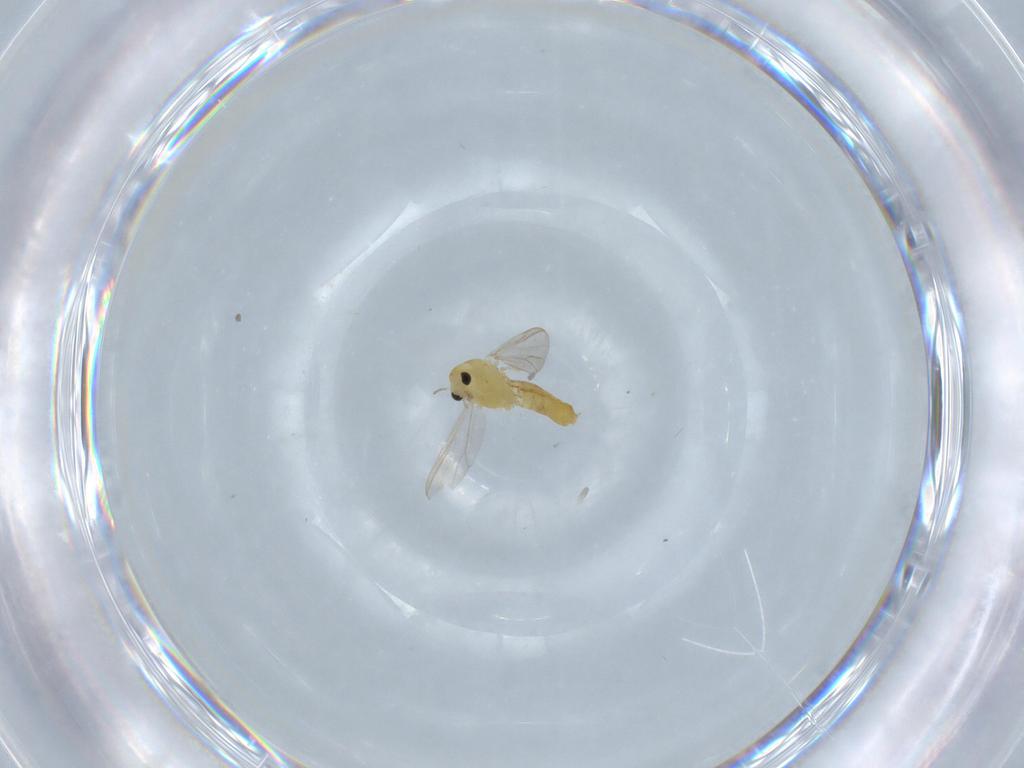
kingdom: Animalia
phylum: Arthropoda
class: Insecta
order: Diptera
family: Chironomidae
